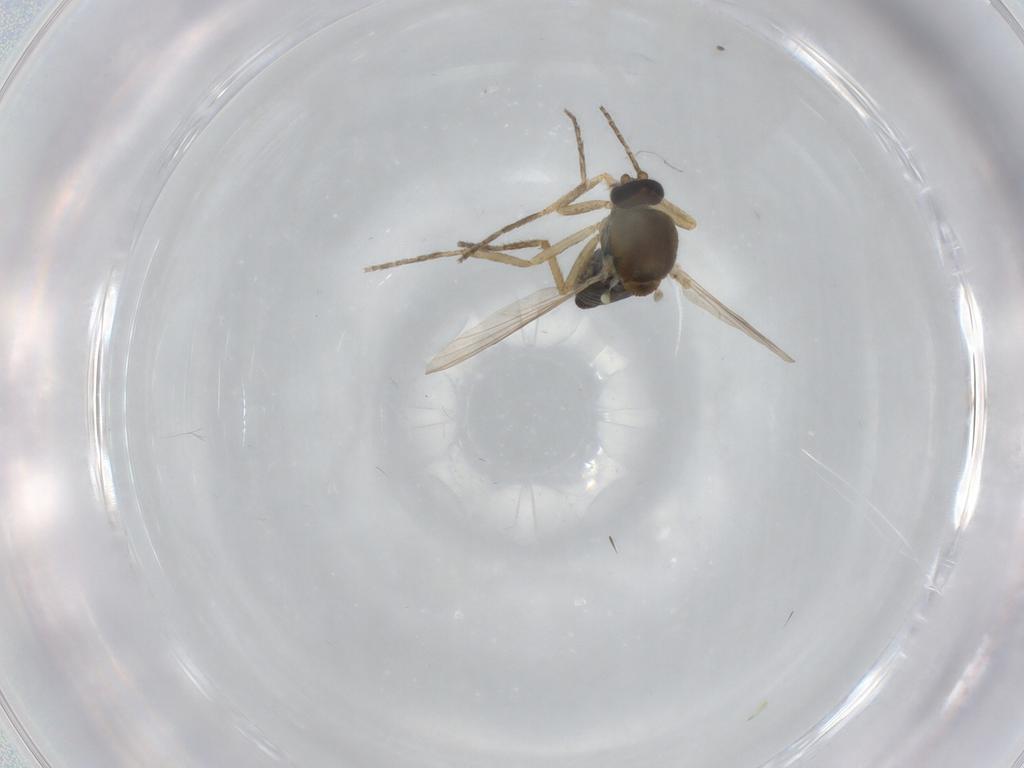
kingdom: Animalia
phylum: Arthropoda
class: Insecta
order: Diptera
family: Ceratopogonidae
